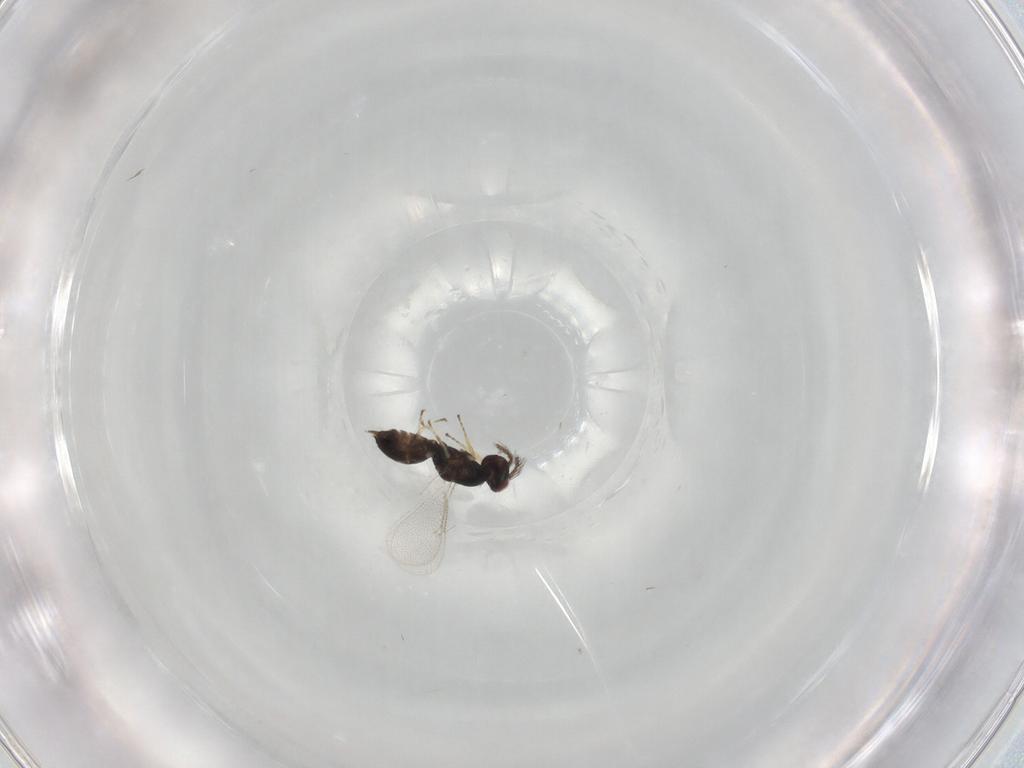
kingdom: Animalia
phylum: Arthropoda
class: Insecta
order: Hymenoptera
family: Eulophidae
